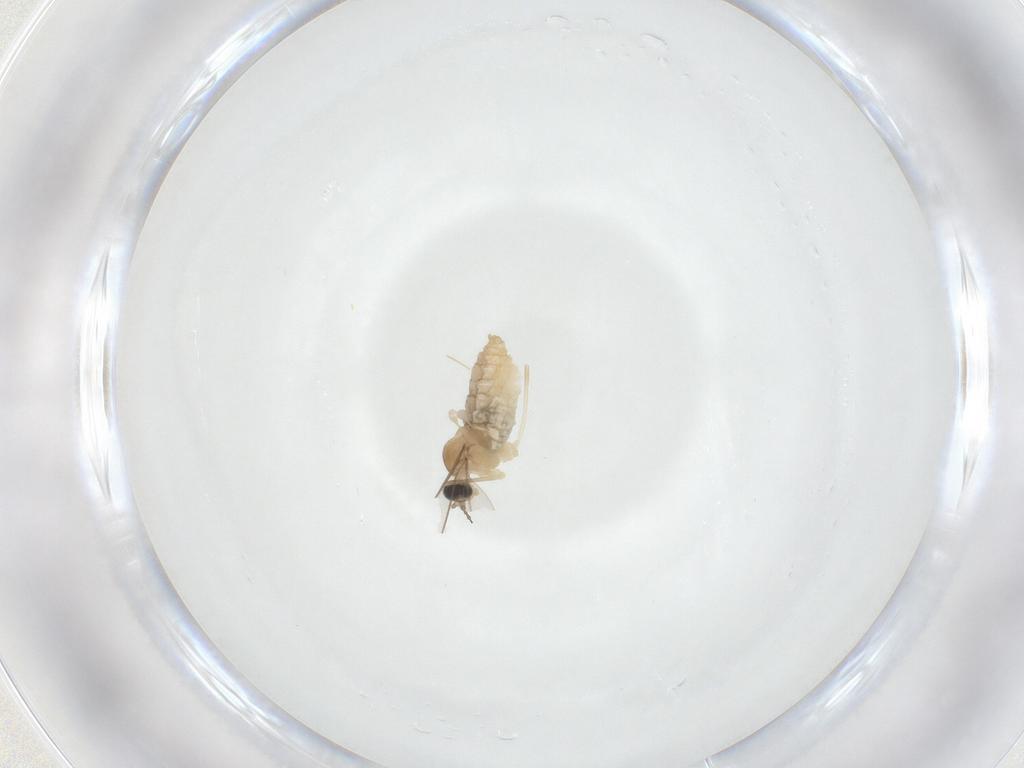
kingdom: Animalia
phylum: Arthropoda
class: Insecta
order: Diptera
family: Cecidomyiidae
